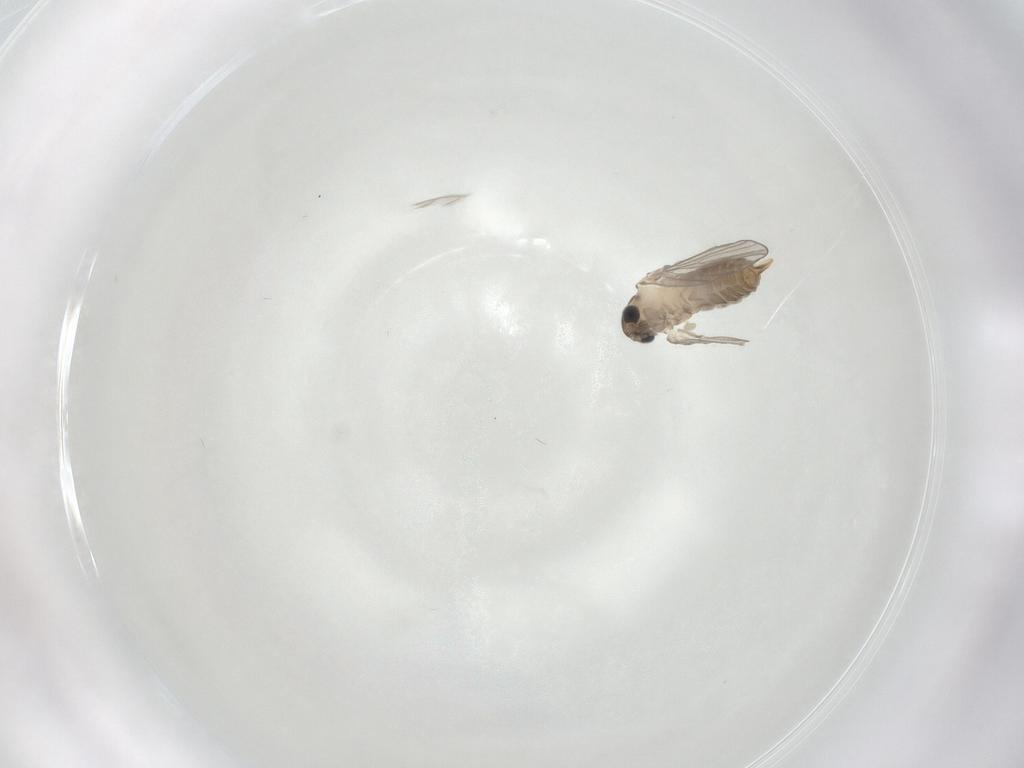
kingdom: Animalia
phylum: Arthropoda
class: Insecta
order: Diptera
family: Psychodidae
